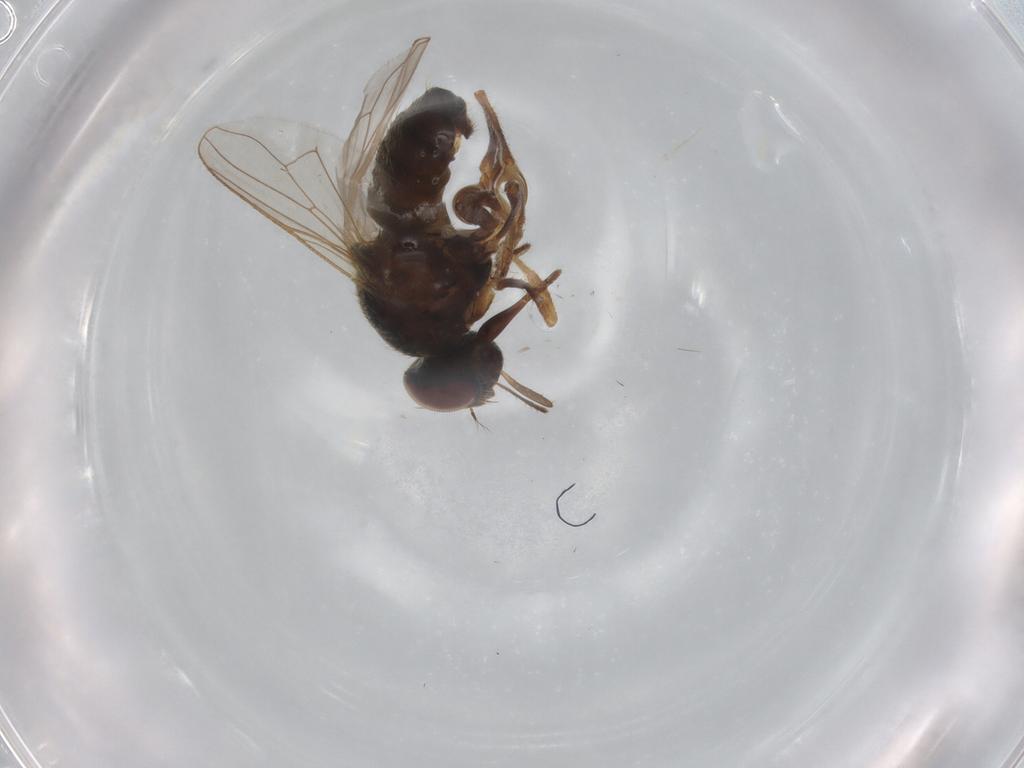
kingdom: Animalia
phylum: Arthropoda
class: Insecta
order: Diptera
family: Muscidae
